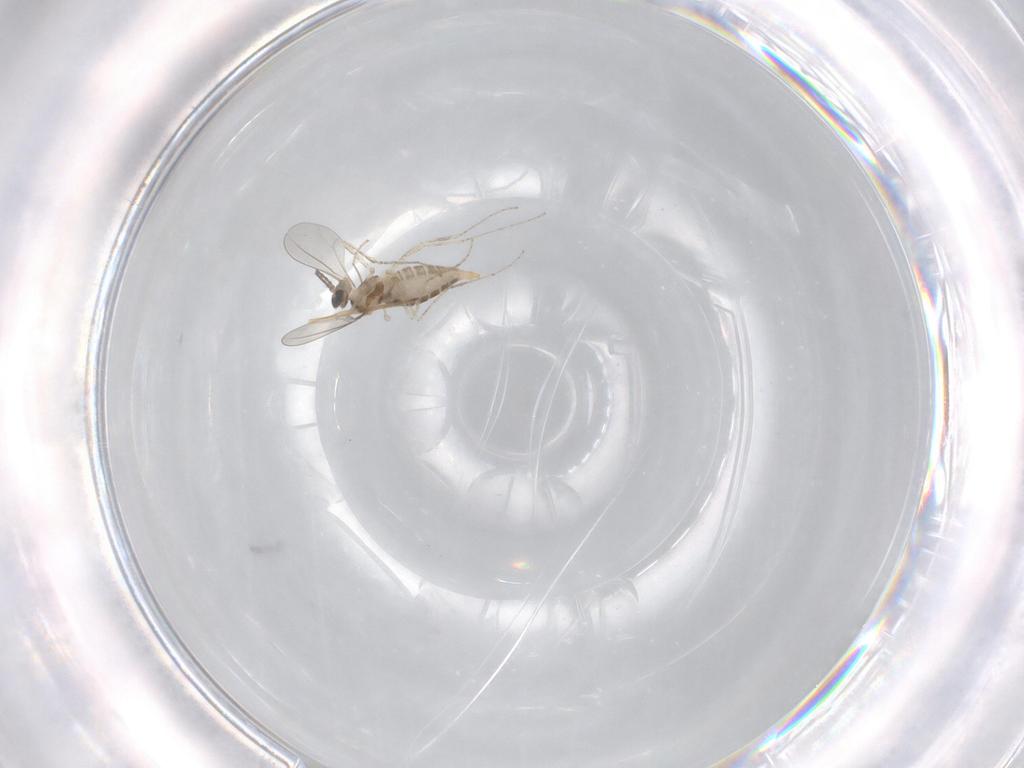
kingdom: Animalia
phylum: Arthropoda
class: Insecta
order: Diptera
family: Cecidomyiidae
